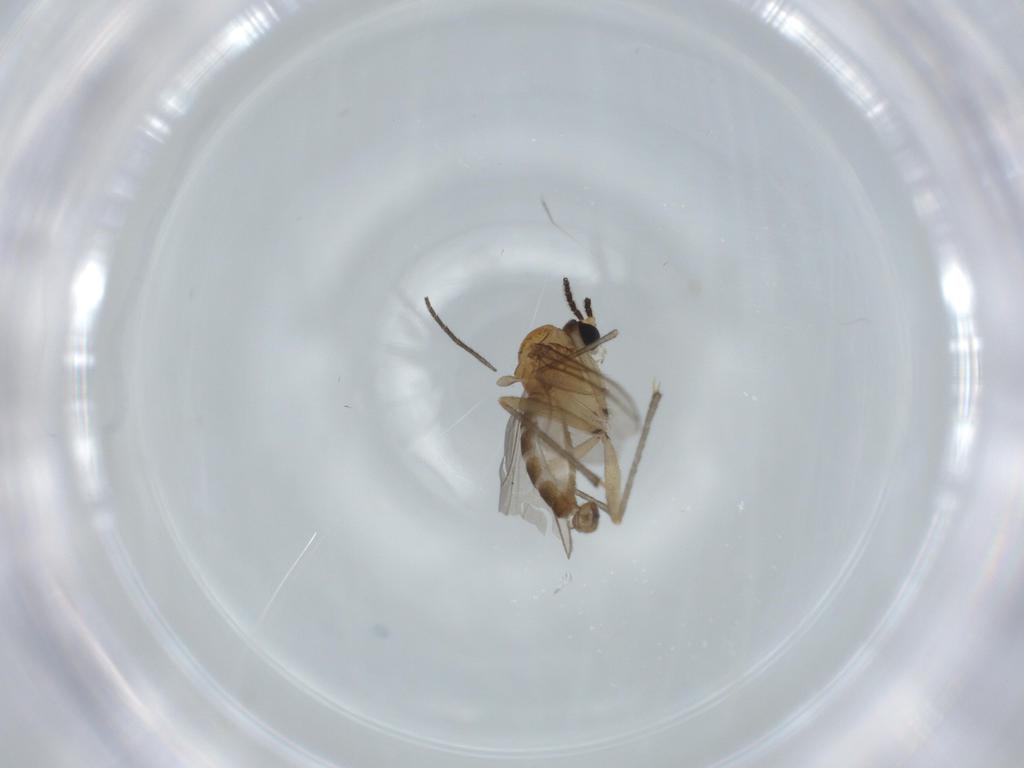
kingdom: Animalia
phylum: Arthropoda
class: Insecta
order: Diptera
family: Sciaridae
